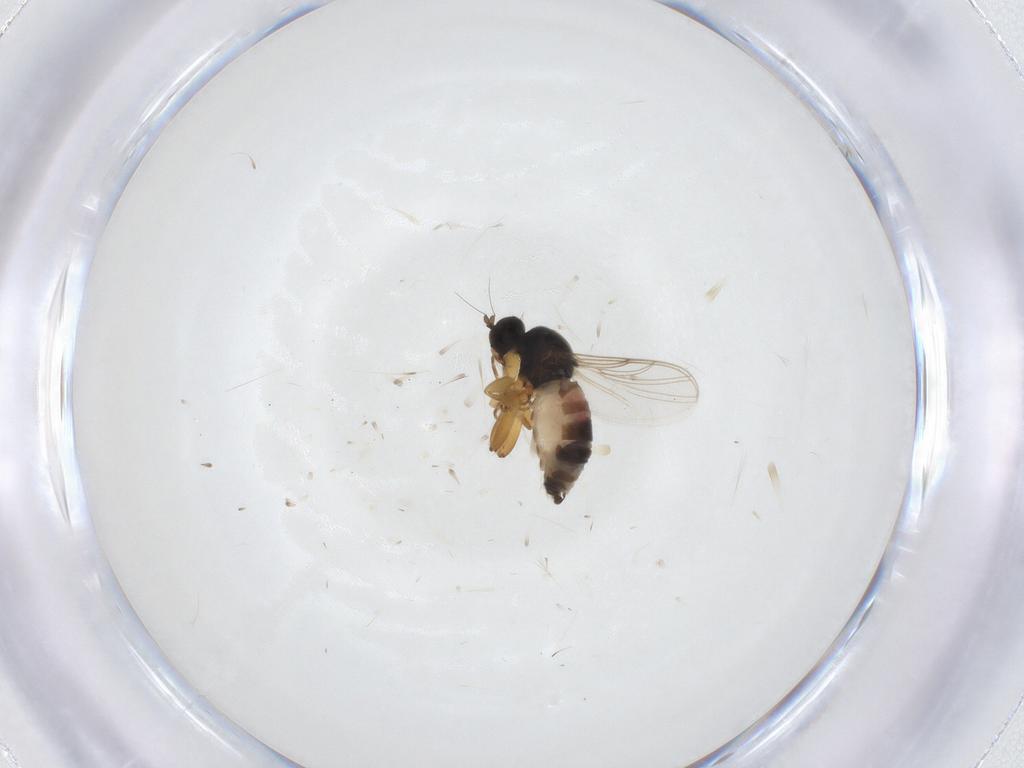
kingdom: Animalia
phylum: Arthropoda
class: Insecta
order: Diptera
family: Hybotidae
